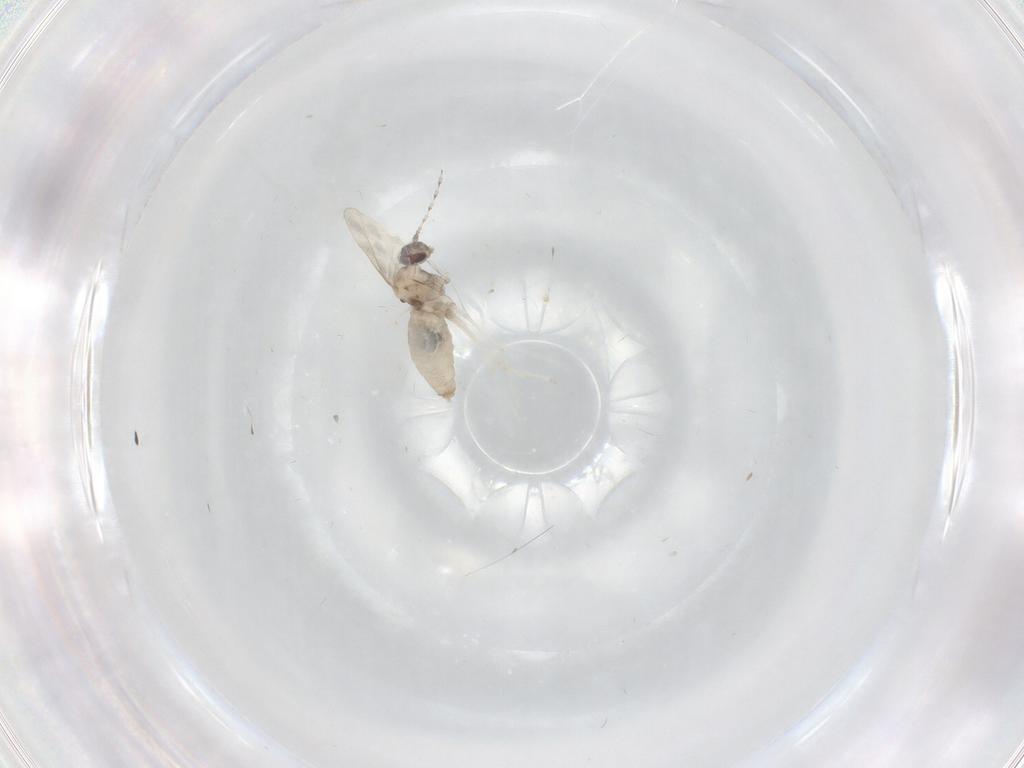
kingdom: Animalia
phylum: Arthropoda
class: Insecta
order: Diptera
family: Cecidomyiidae
